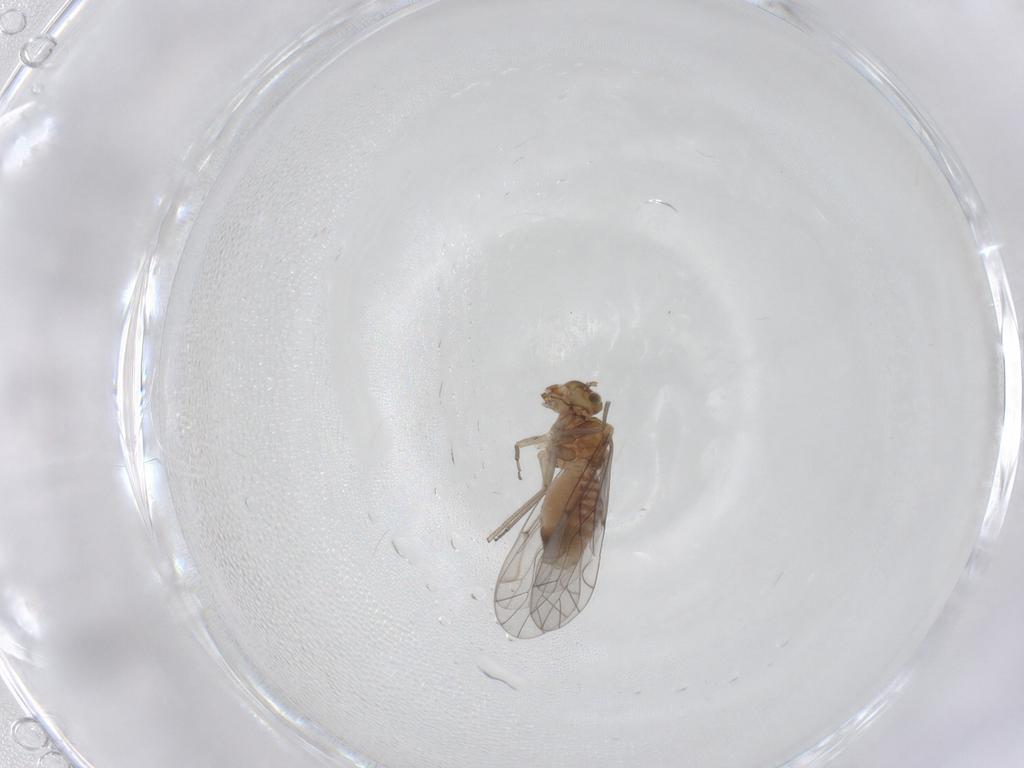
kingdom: Animalia
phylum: Arthropoda
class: Insecta
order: Psocodea
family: Lachesillidae
